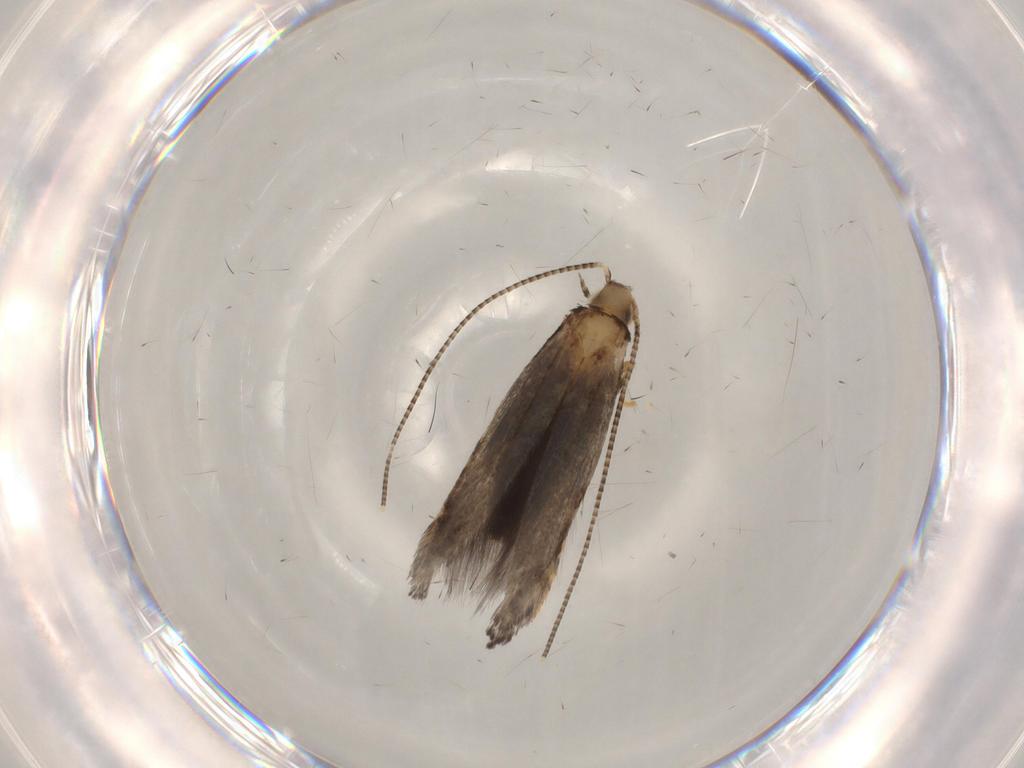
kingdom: Animalia
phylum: Arthropoda
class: Insecta
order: Lepidoptera
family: Gracillariidae
